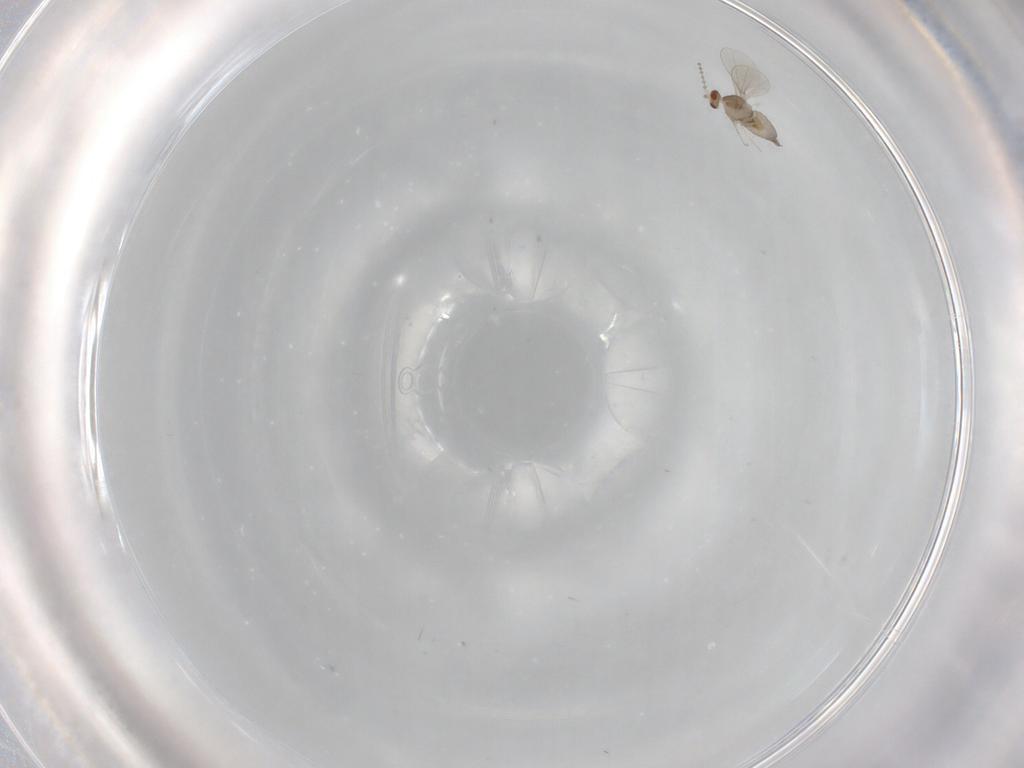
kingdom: Animalia
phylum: Arthropoda
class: Insecta
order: Diptera
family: Cecidomyiidae
